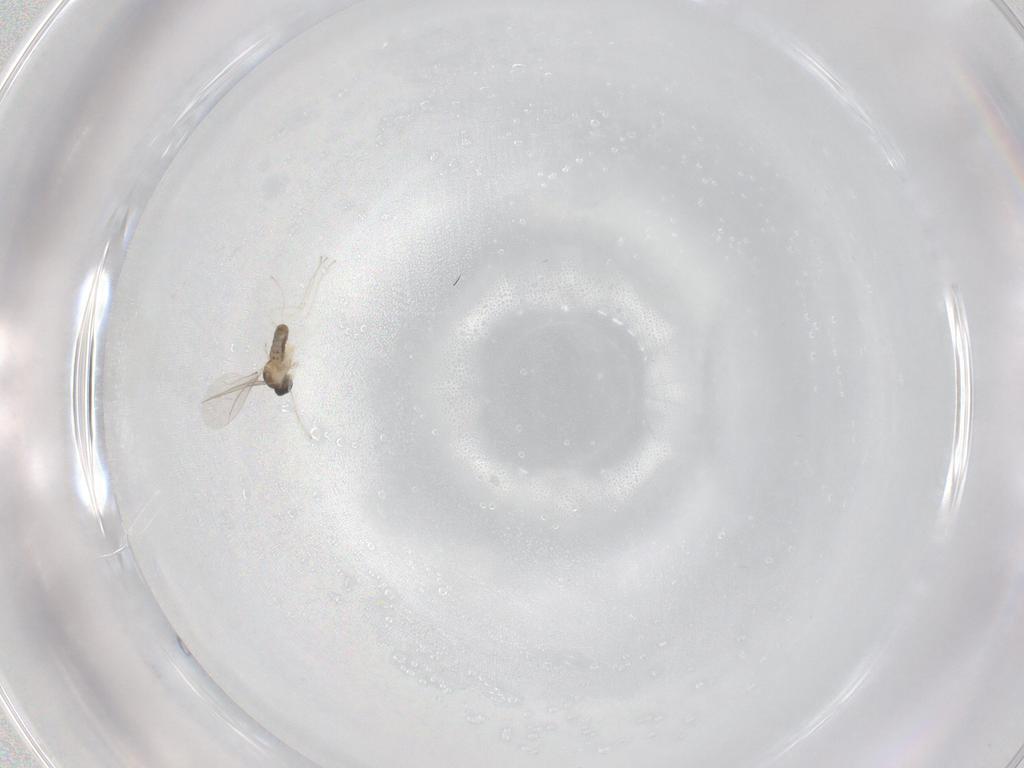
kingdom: Animalia
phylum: Arthropoda
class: Insecta
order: Diptera
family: Cecidomyiidae
